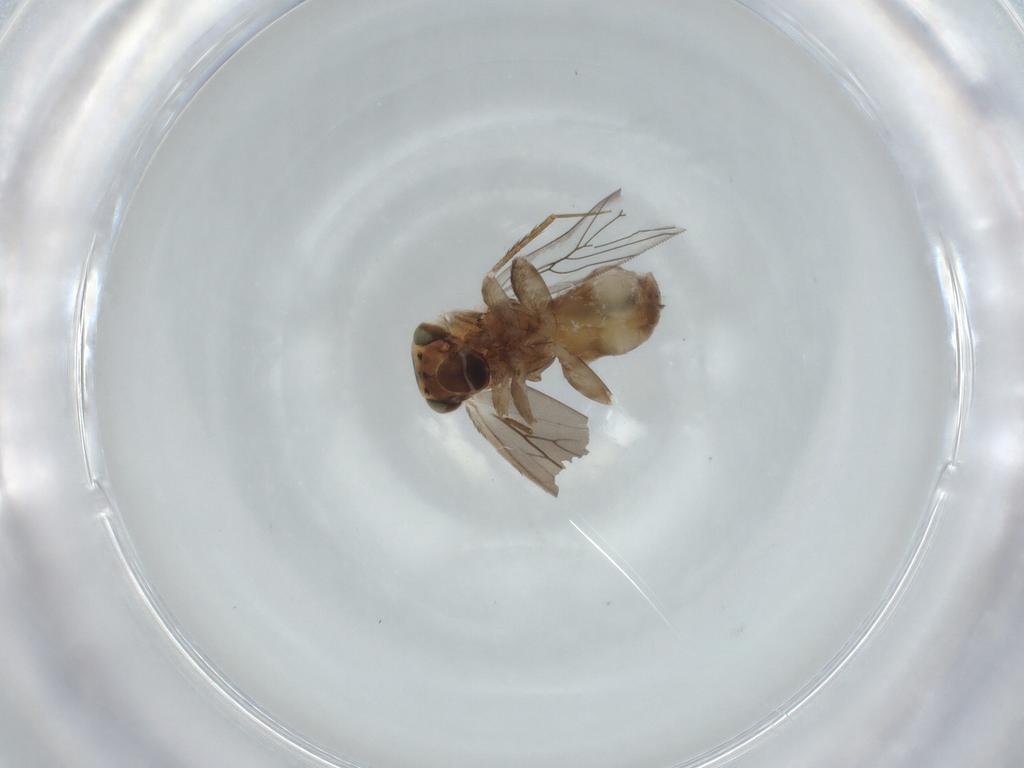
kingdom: Animalia
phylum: Arthropoda
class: Insecta
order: Psocodea
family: Lepidopsocidae
